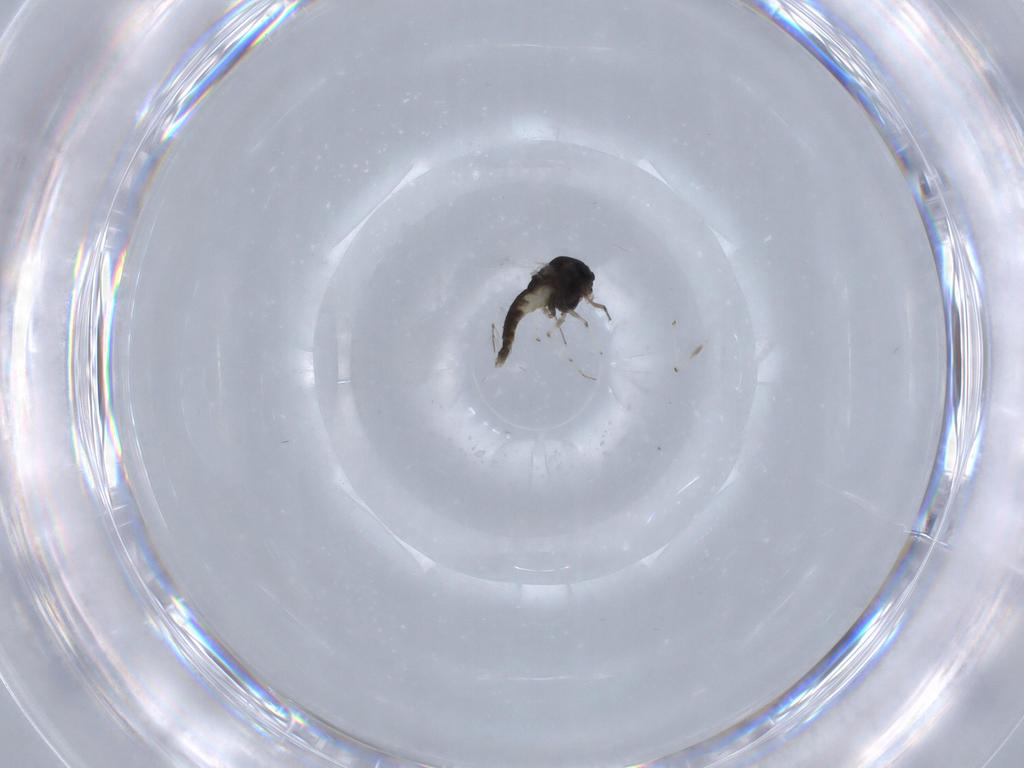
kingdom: Animalia
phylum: Arthropoda
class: Insecta
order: Diptera
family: Chironomidae
